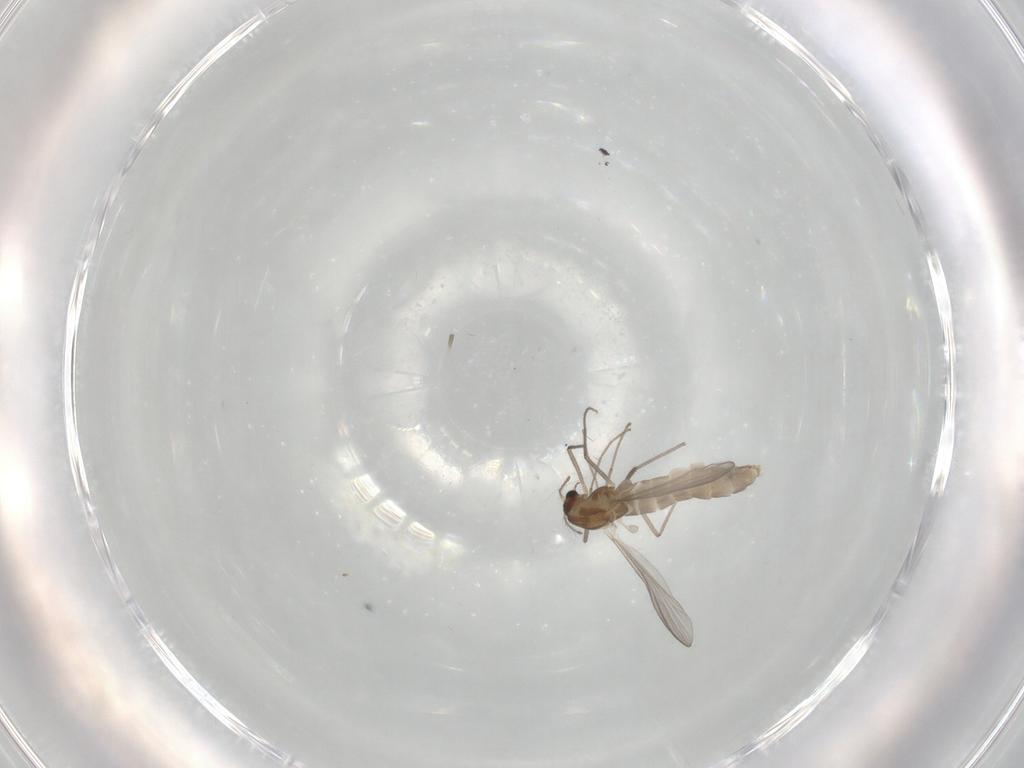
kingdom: Animalia
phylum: Arthropoda
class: Insecta
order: Diptera
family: Chironomidae
